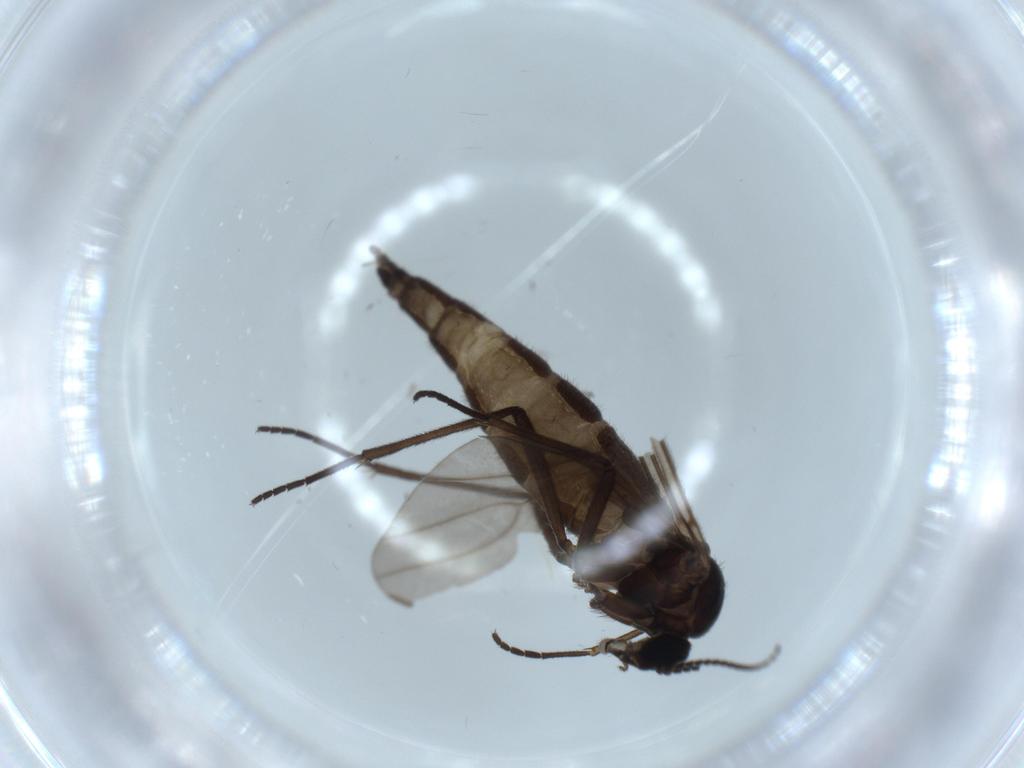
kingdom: Animalia
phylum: Arthropoda
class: Insecta
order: Diptera
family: Sciaridae
